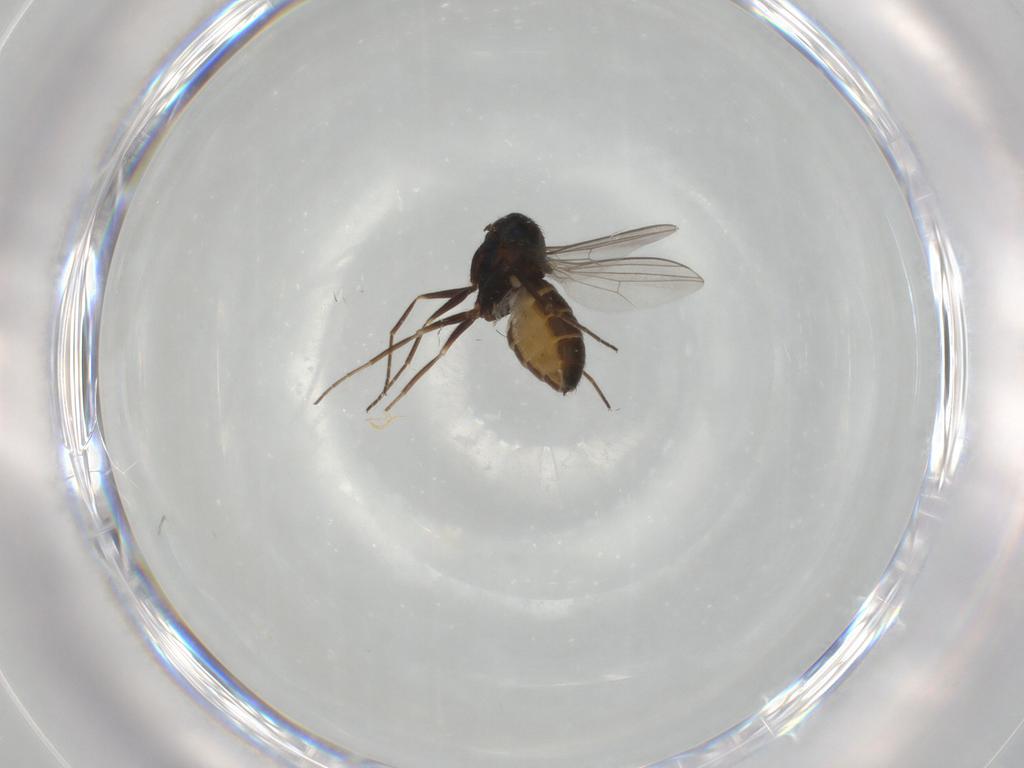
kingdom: Animalia
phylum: Arthropoda
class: Insecta
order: Diptera
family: Dolichopodidae
